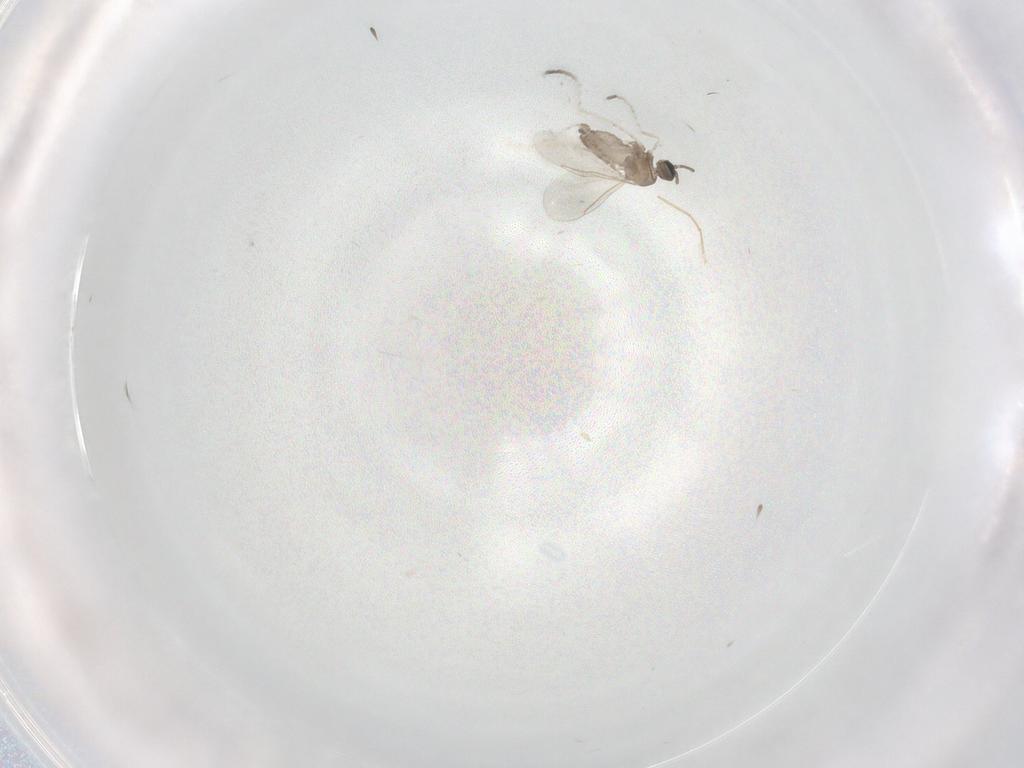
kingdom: Animalia
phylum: Arthropoda
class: Insecta
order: Diptera
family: Cecidomyiidae
